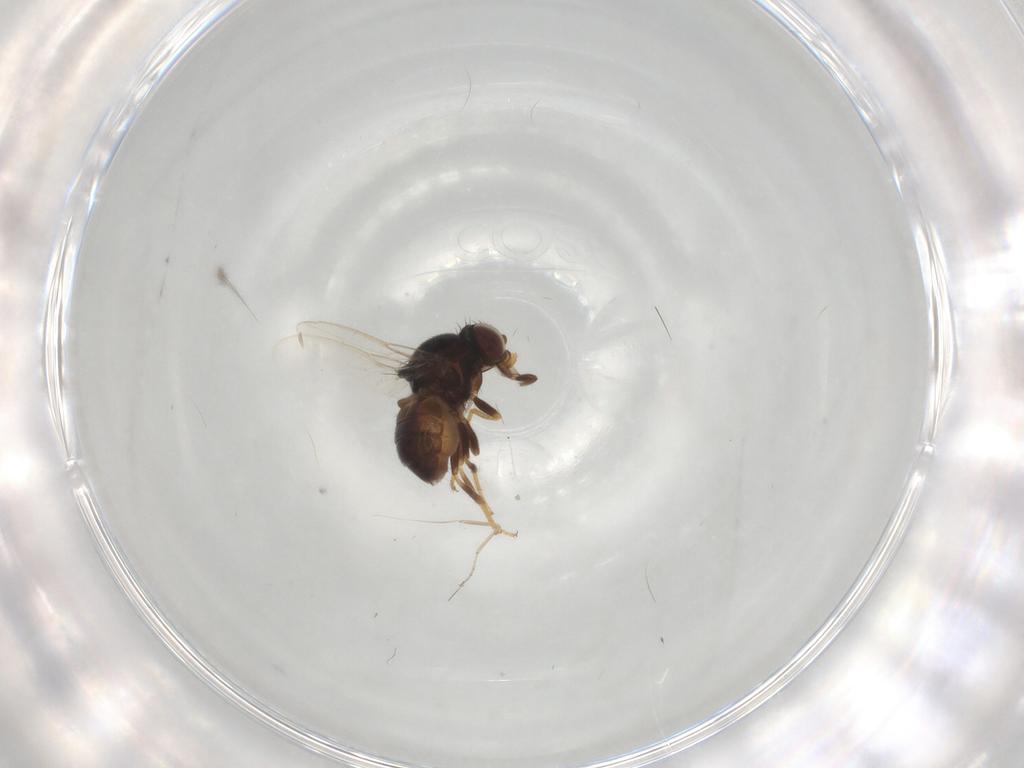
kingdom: Animalia
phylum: Arthropoda
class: Insecta
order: Diptera
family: Chloropidae
